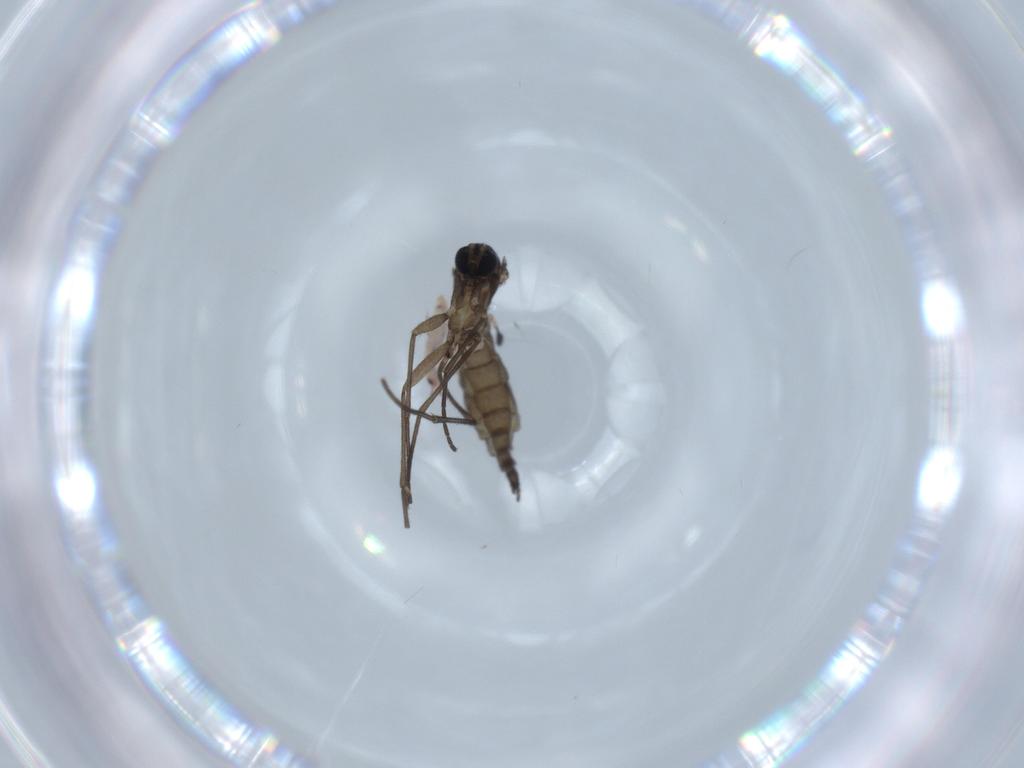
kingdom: Animalia
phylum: Arthropoda
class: Insecta
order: Diptera
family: Sciaridae
